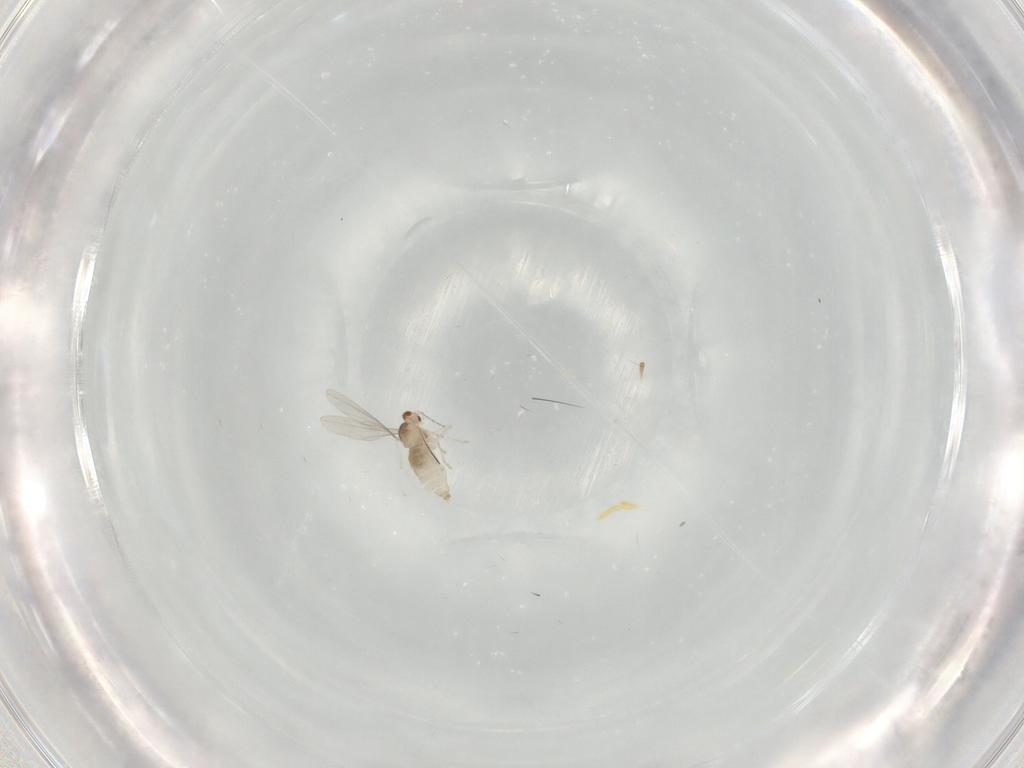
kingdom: Animalia
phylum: Arthropoda
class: Insecta
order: Diptera
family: Cecidomyiidae
